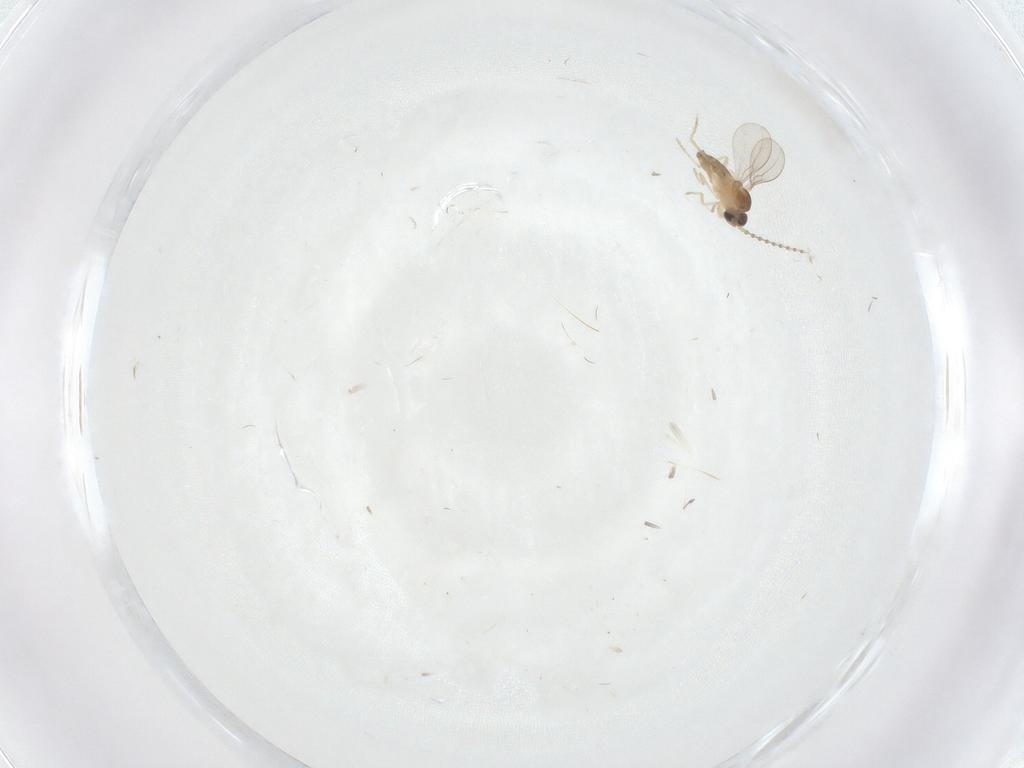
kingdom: Animalia
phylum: Arthropoda
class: Insecta
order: Diptera
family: Cecidomyiidae
